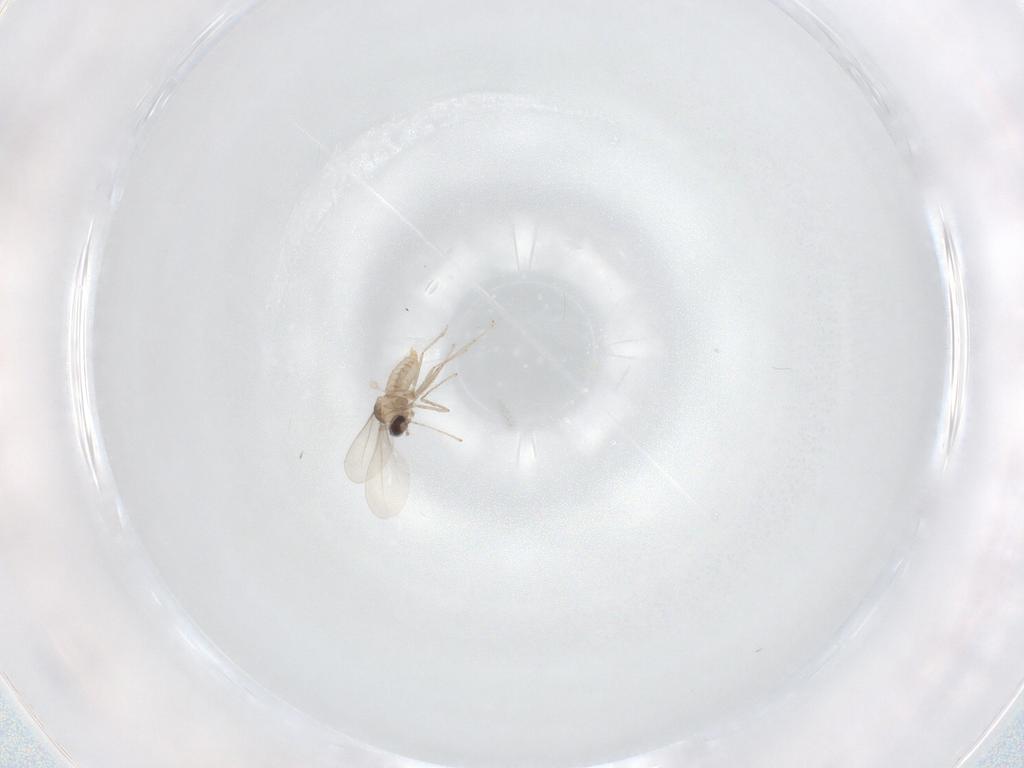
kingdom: Animalia
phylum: Arthropoda
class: Insecta
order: Diptera
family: Chironomidae
